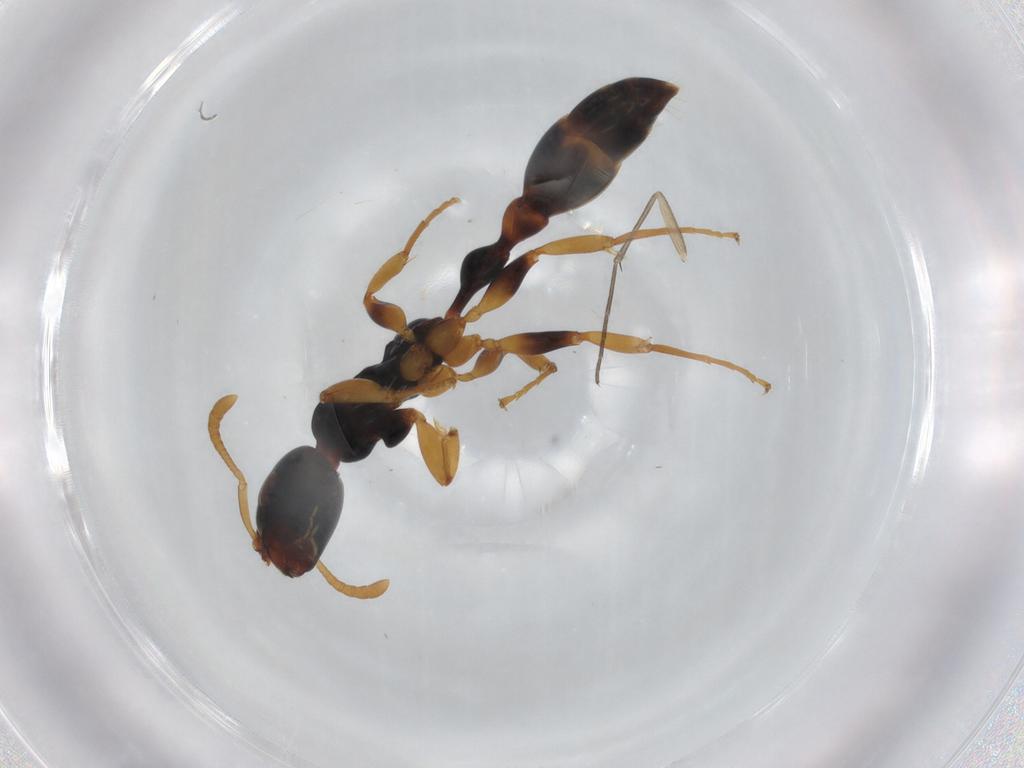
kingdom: Animalia
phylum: Arthropoda
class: Insecta
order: Hymenoptera
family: Formicidae
